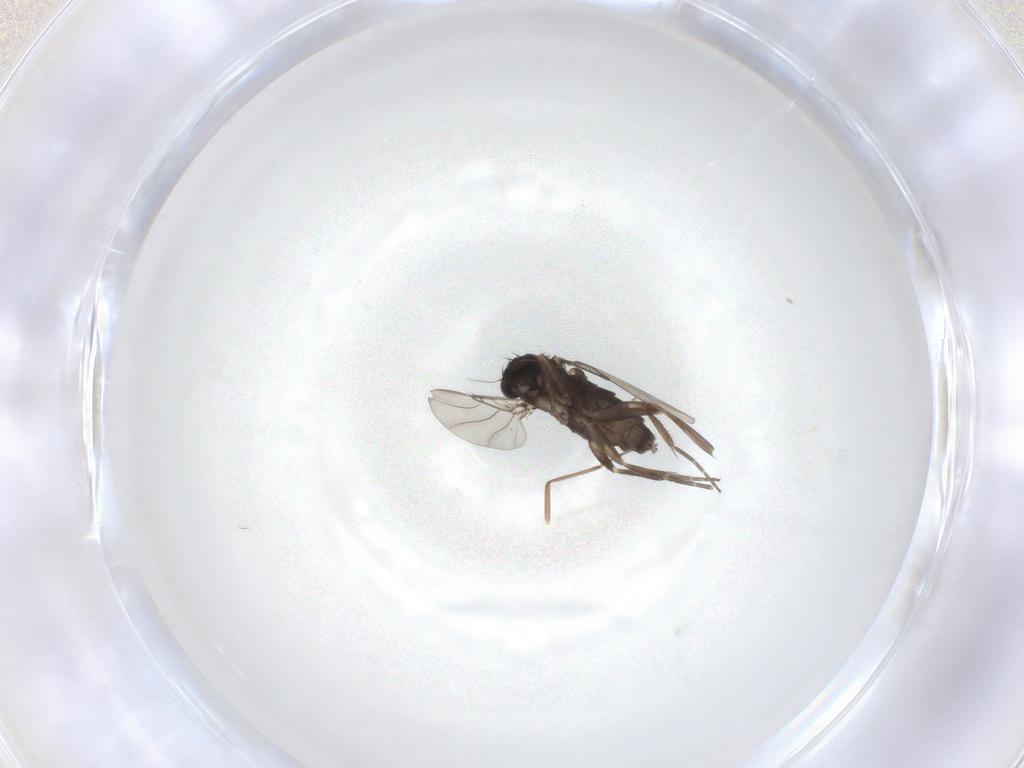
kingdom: Animalia
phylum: Arthropoda
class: Insecta
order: Diptera
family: Phoridae
